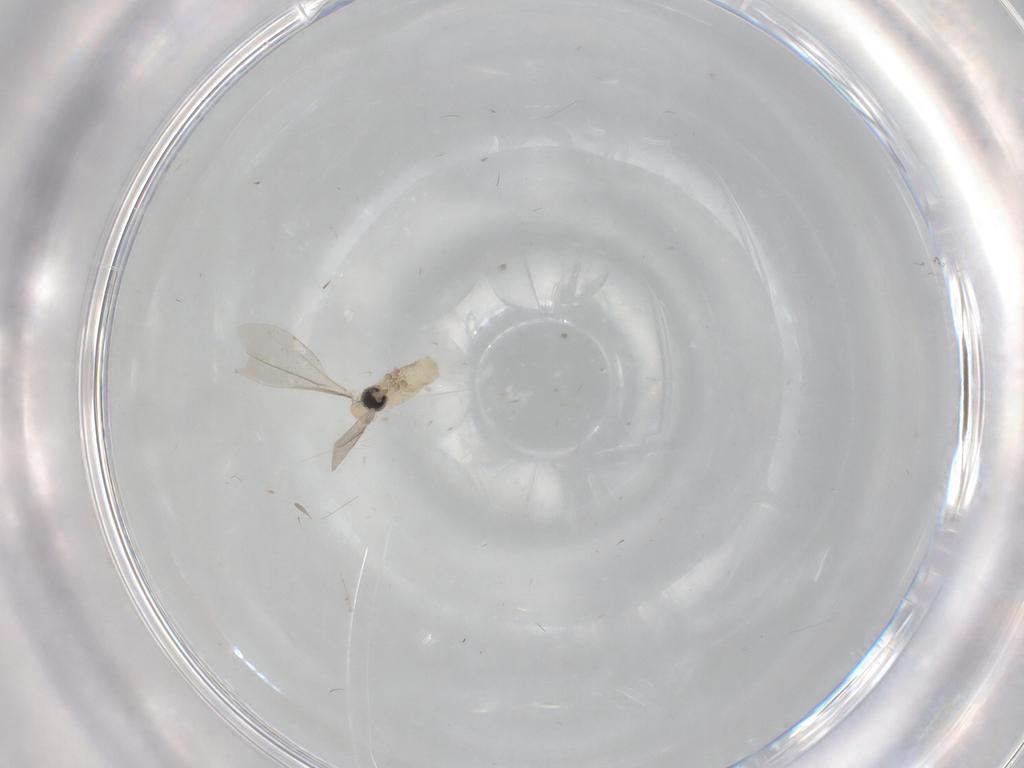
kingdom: Animalia
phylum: Arthropoda
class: Insecta
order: Diptera
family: Cecidomyiidae
